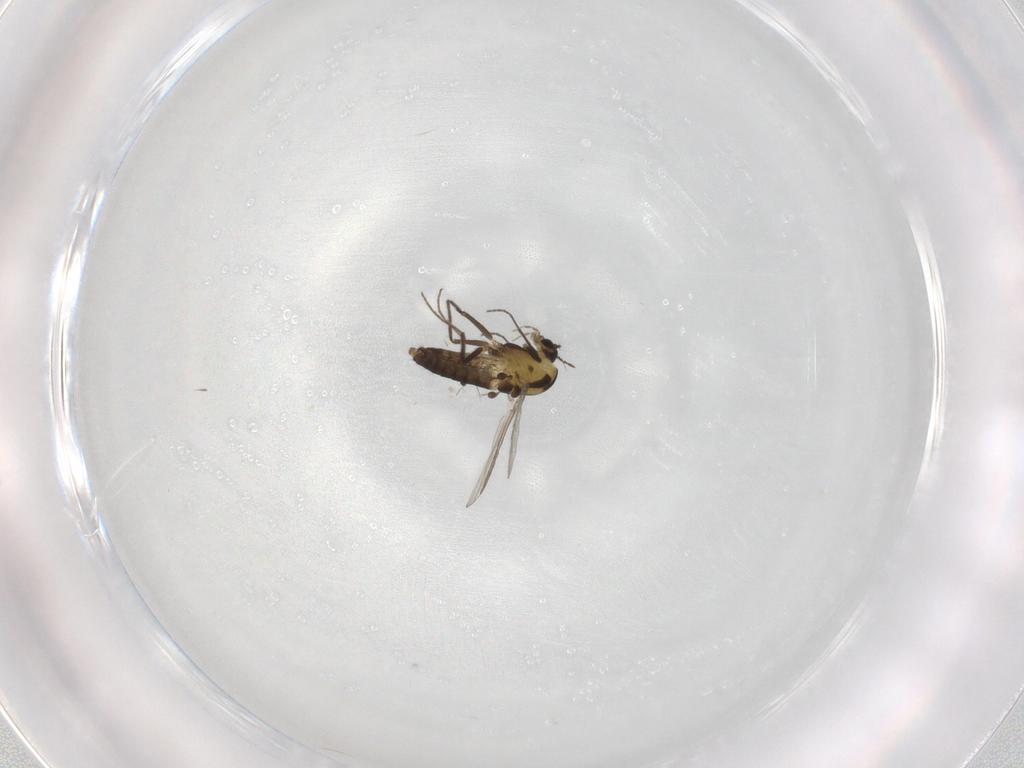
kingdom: Animalia
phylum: Arthropoda
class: Insecta
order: Diptera
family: Chironomidae
